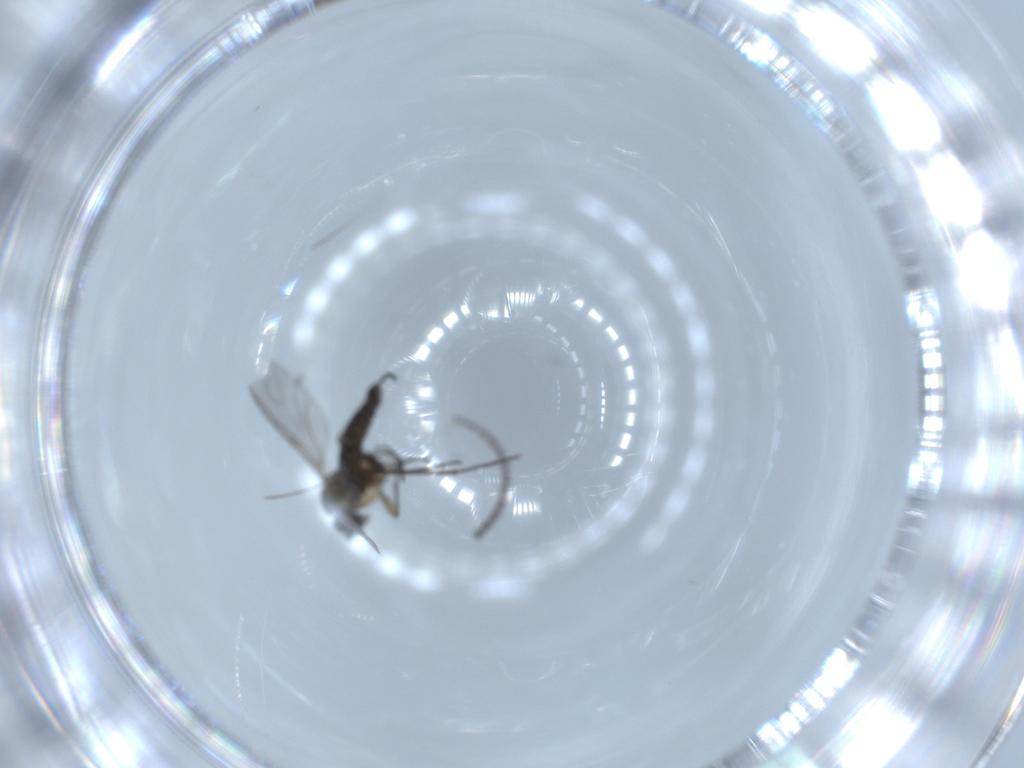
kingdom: Animalia
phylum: Arthropoda
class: Insecta
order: Diptera
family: Sciaridae
